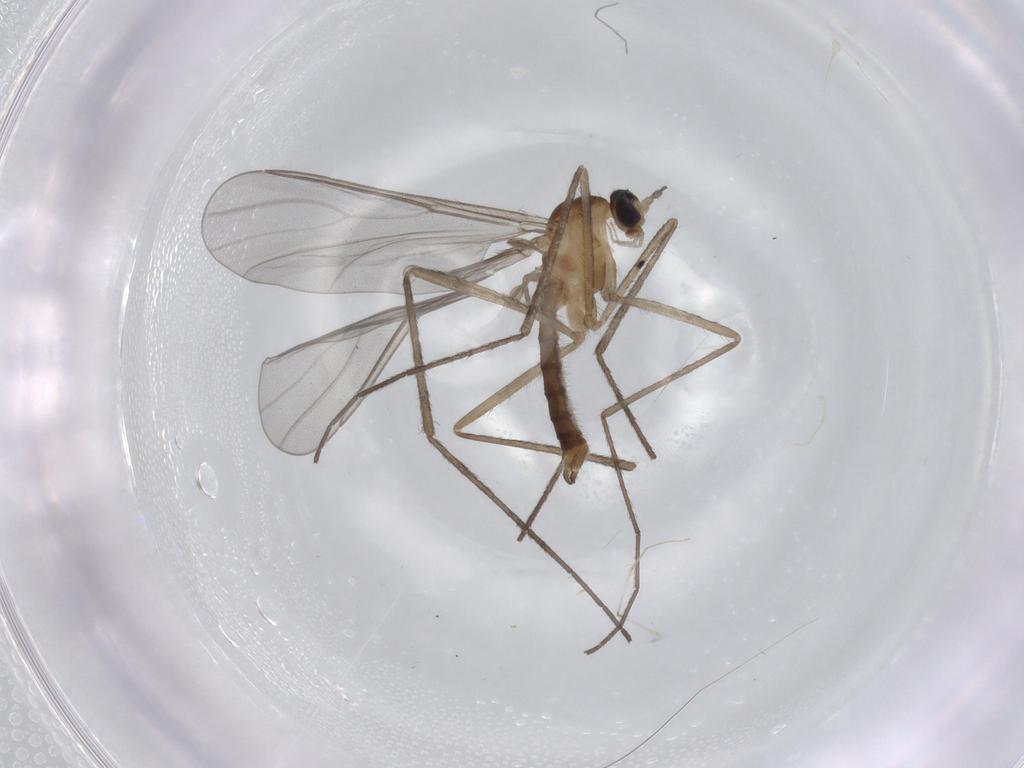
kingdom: Animalia
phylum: Arthropoda
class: Insecta
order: Diptera
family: Cecidomyiidae
